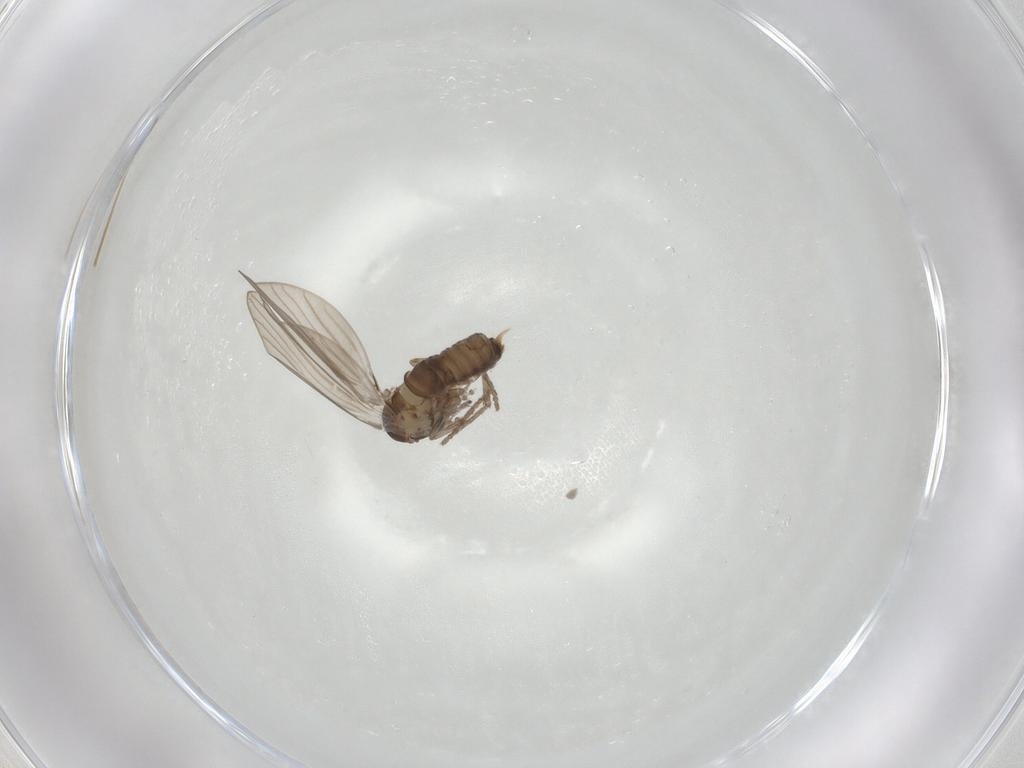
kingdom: Animalia
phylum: Arthropoda
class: Insecta
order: Diptera
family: Psychodidae
